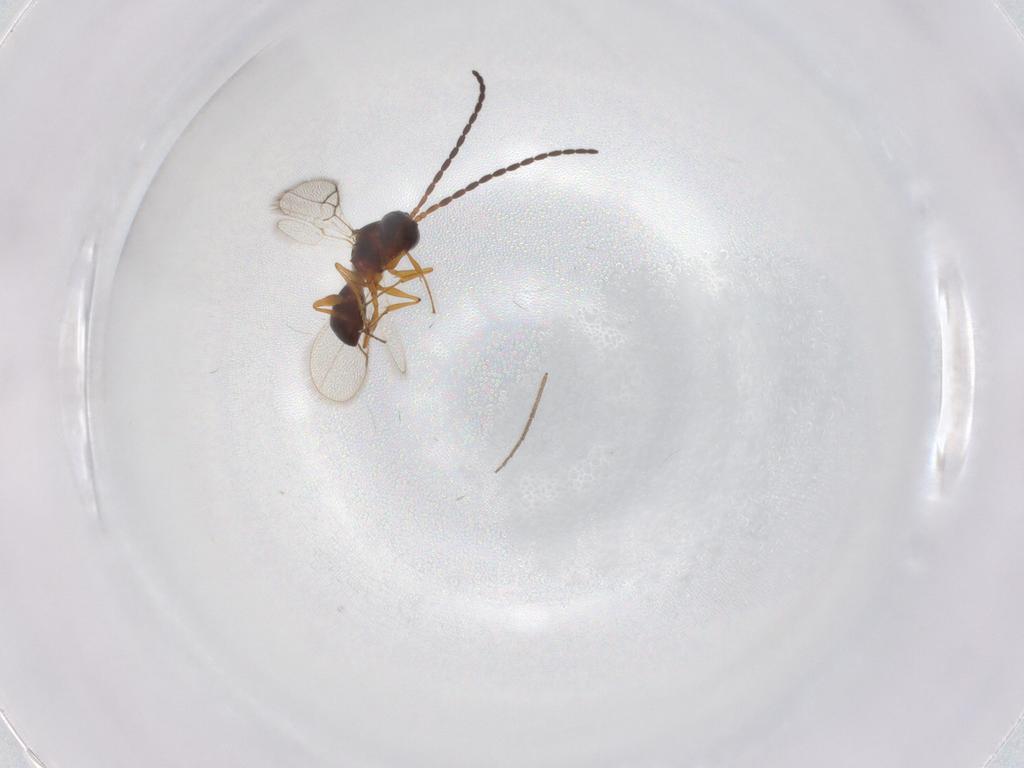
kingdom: Animalia
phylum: Arthropoda
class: Insecta
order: Hymenoptera
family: Figitidae
